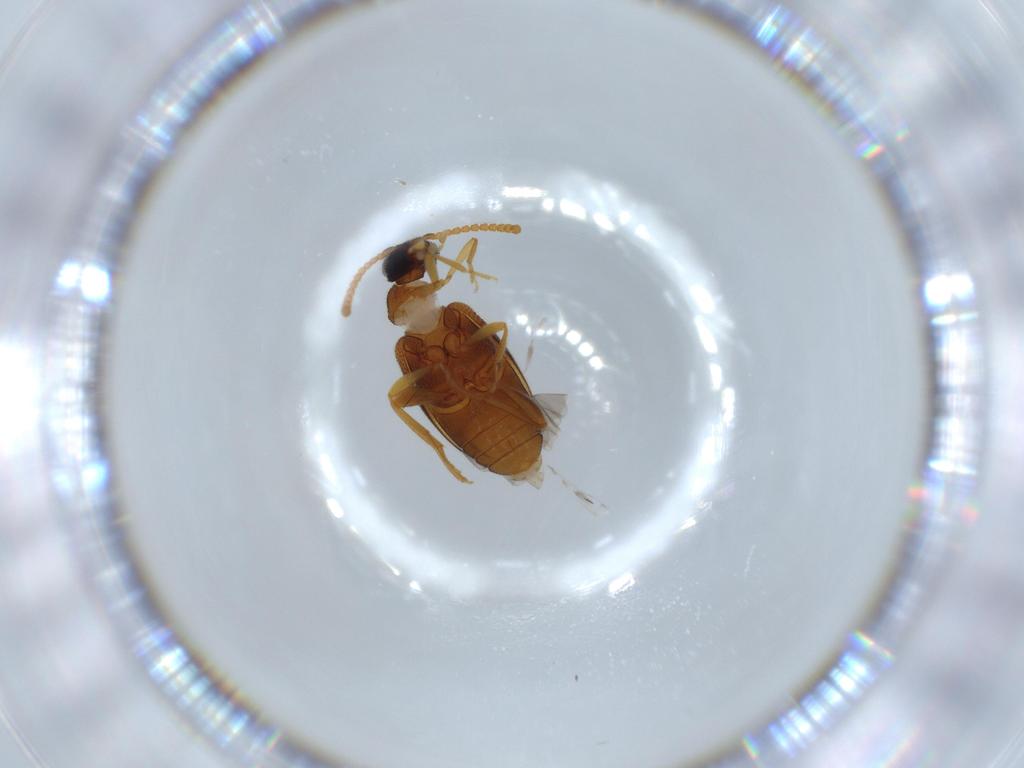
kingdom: Animalia
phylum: Arthropoda
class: Insecta
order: Coleoptera
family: Aderidae
